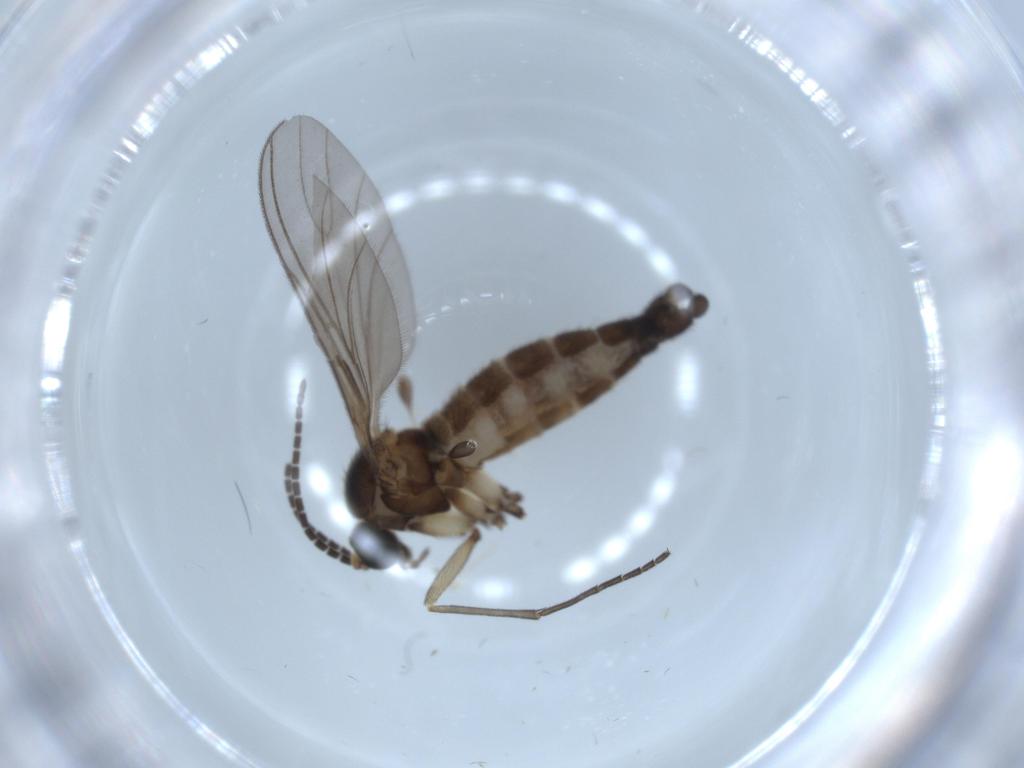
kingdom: Animalia
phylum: Arthropoda
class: Insecta
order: Diptera
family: Sciaridae
